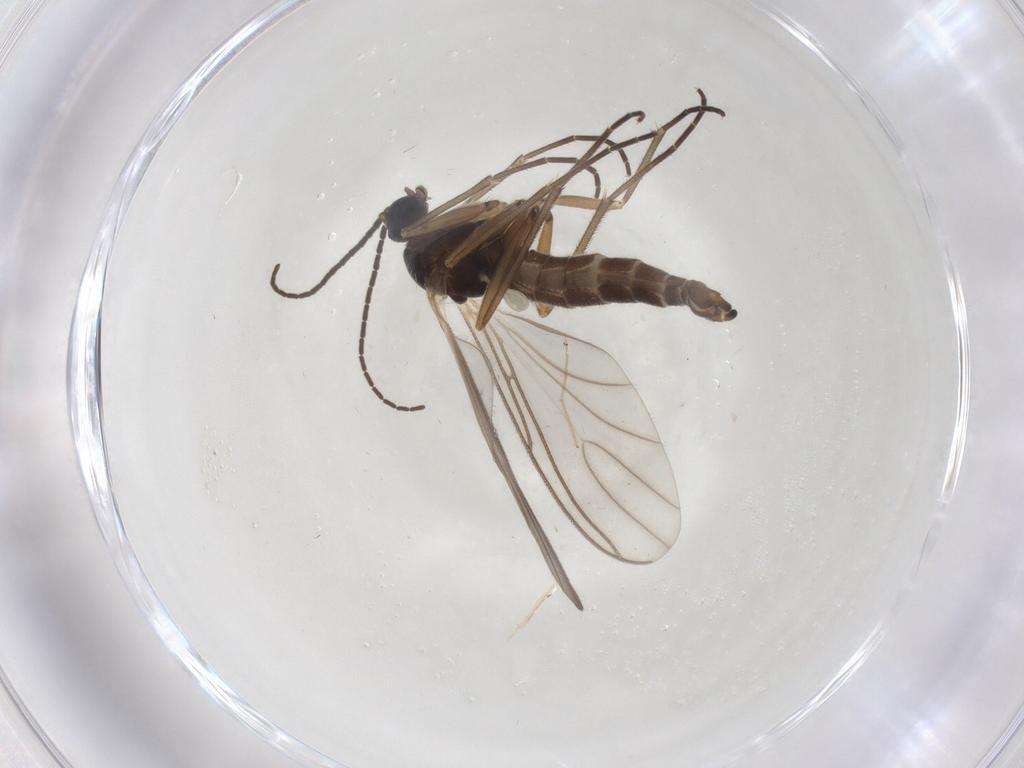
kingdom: Animalia
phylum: Arthropoda
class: Insecta
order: Diptera
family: Sciaridae
